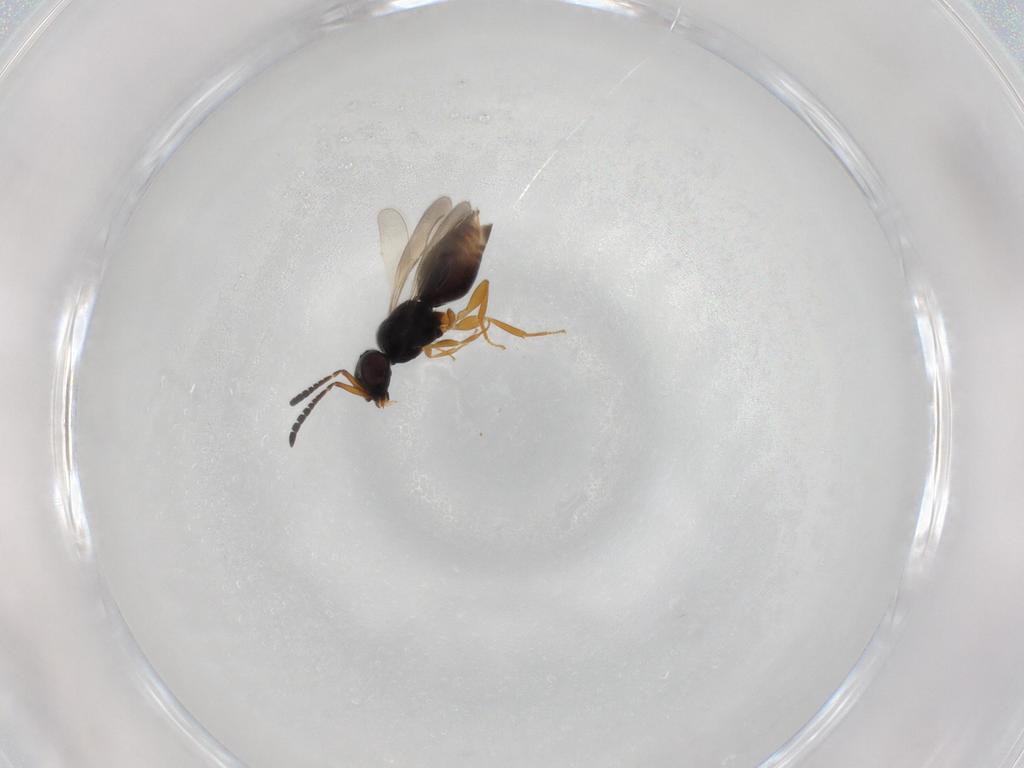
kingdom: Animalia
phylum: Arthropoda
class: Insecta
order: Hymenoptera
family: Ceraphronidae
